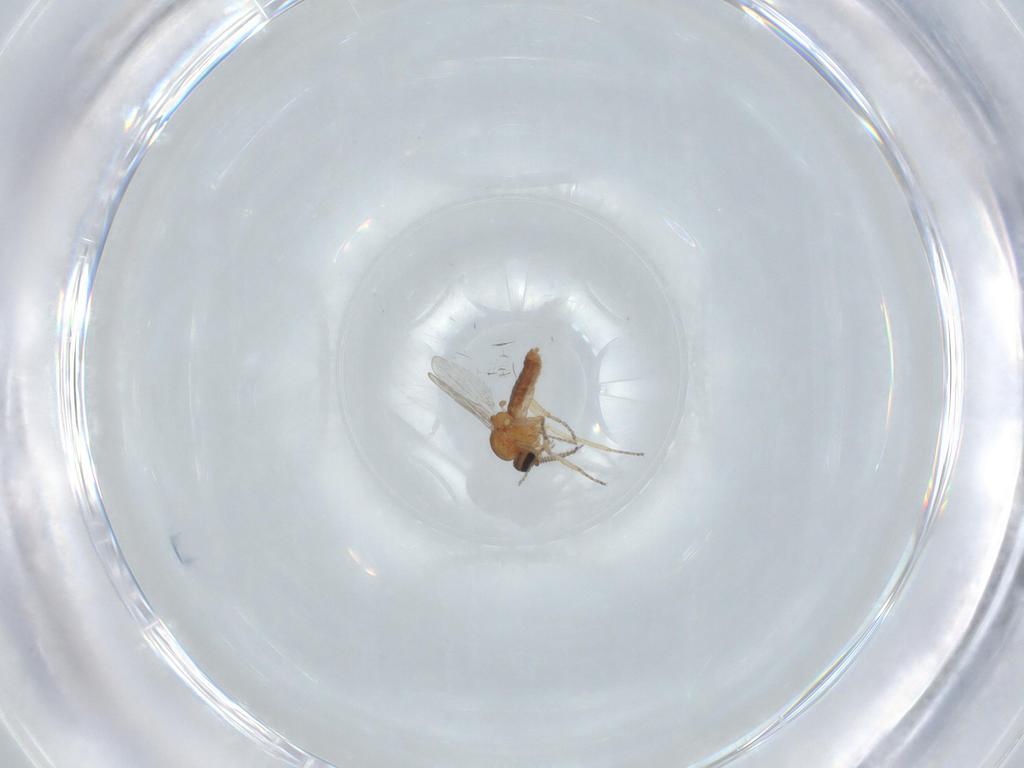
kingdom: Animalia
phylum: Arthropoda
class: Insecta
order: Diptera
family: Ceratopogonidae
